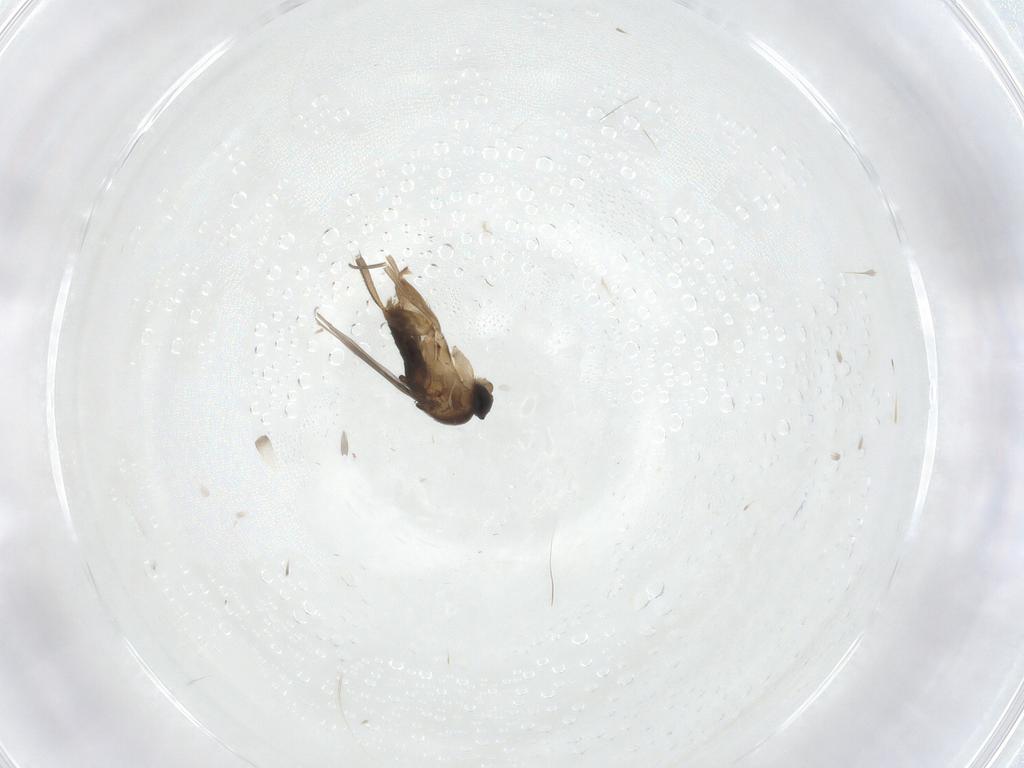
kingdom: Animalia
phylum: Arthropoda
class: Insecta
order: Diptera
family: Phoridae
